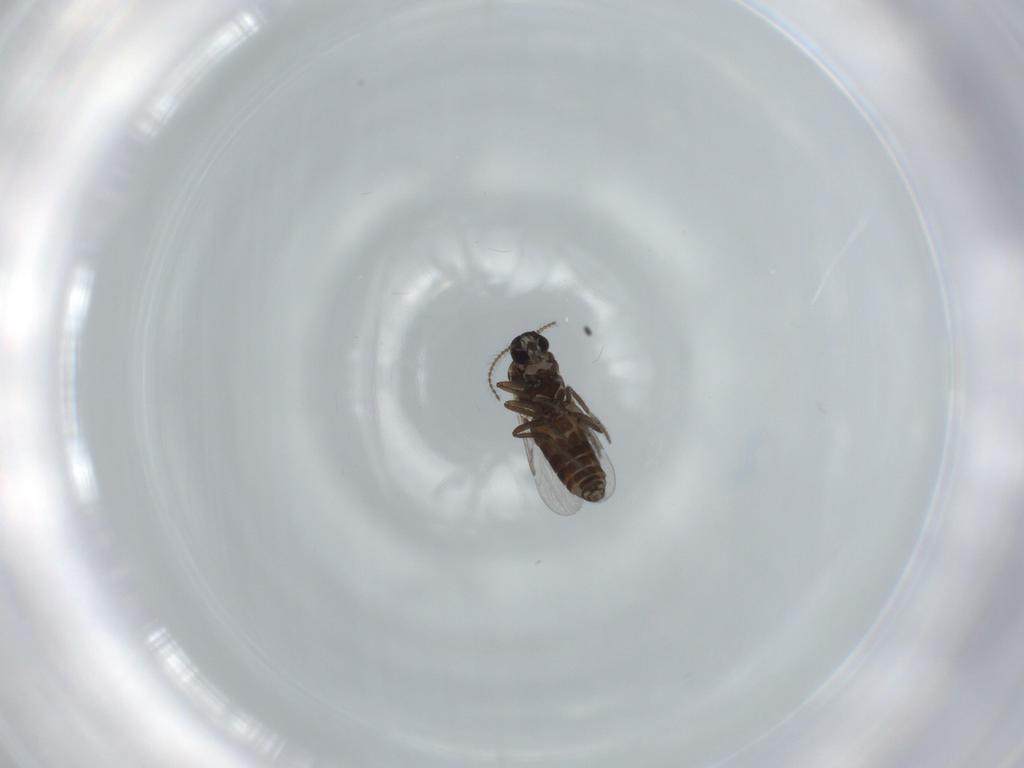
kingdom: Animalia
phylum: Arthropoda
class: Insecta
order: Diptera
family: Ceratopogonidae
